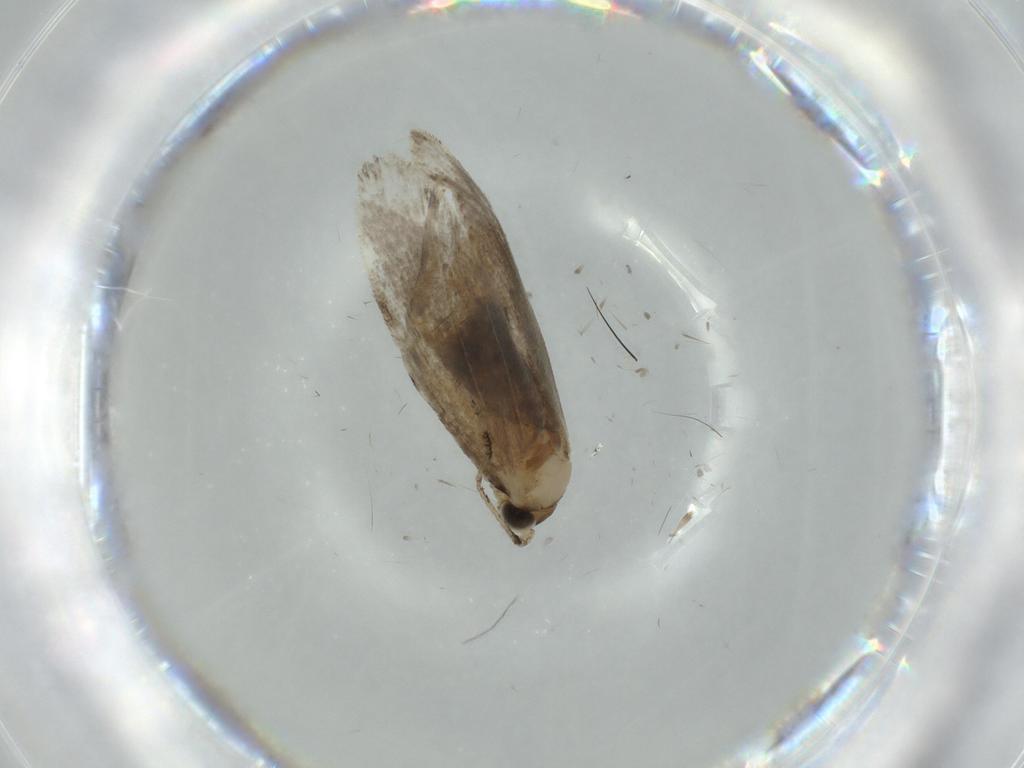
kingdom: Animalia
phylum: Arthropoda
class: Insecta
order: Lepidoptera
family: Tineidae
